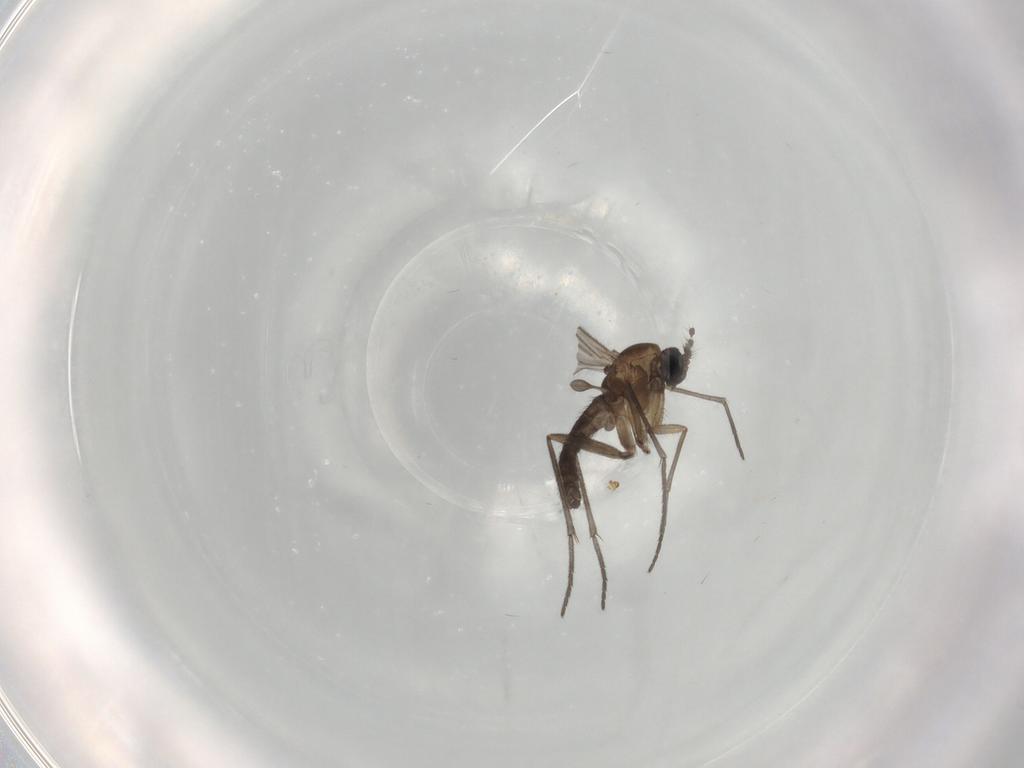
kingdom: Animalia
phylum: Arthropoda
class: Insecta
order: Diptera
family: Sciaridae
